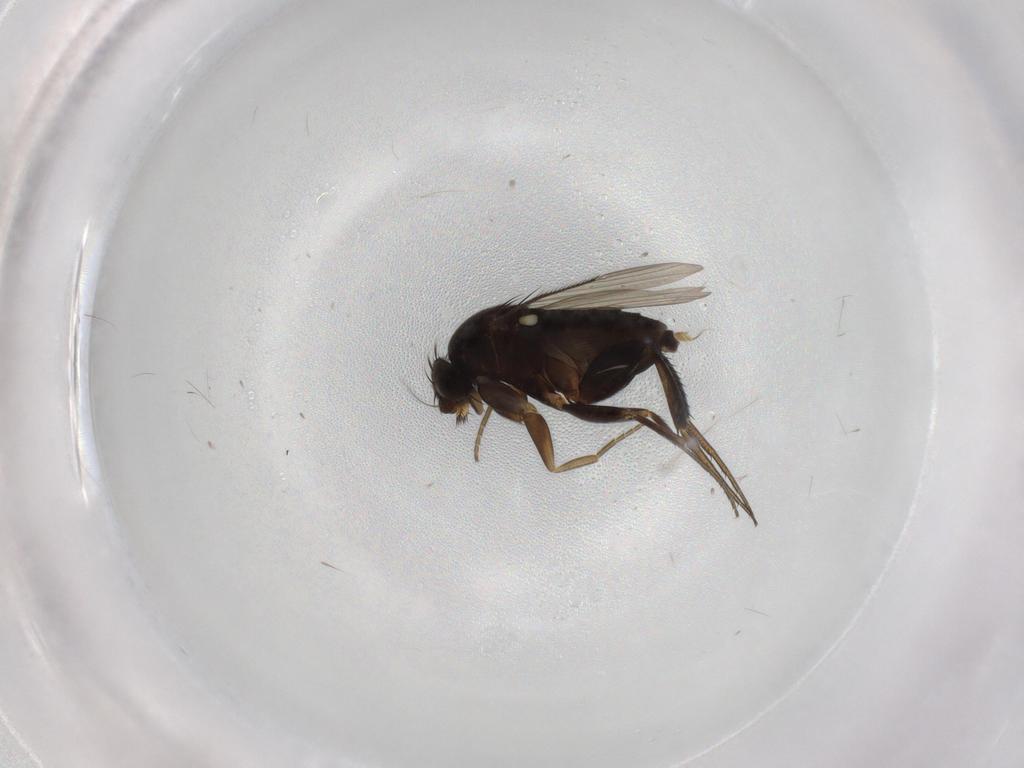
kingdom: Animalia
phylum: Arthropoda
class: Insecta
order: Diptera
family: Phoridae
